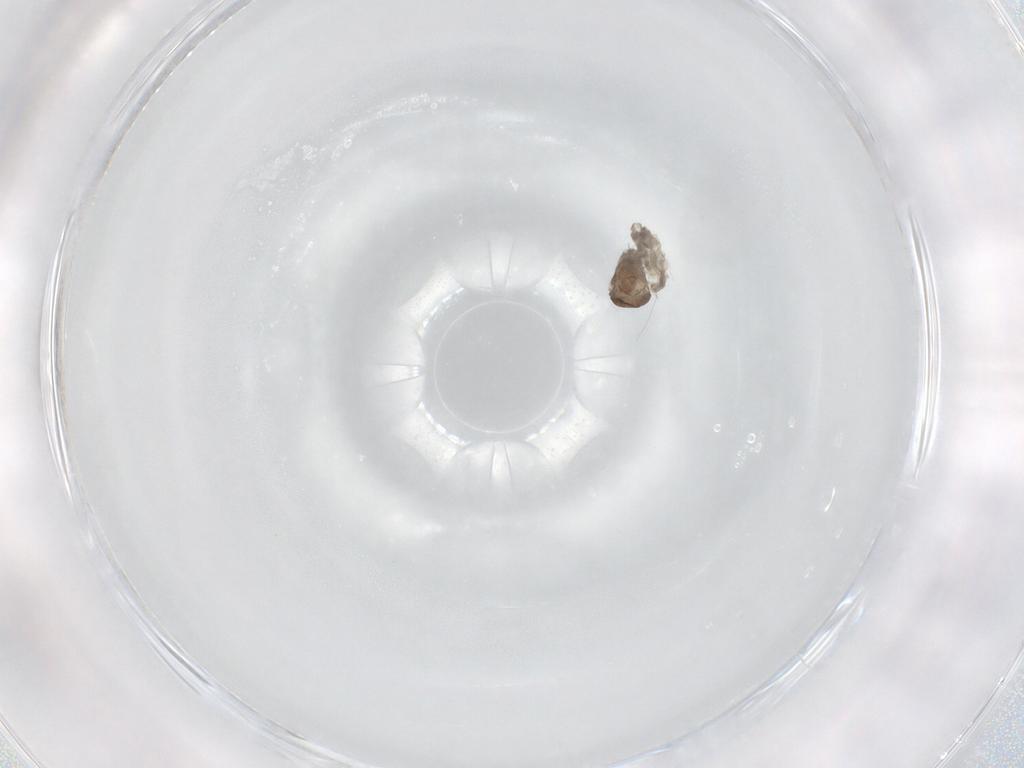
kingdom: Animalia
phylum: Arthropoda
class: Insecta
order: Diptera
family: Ceratopogonidae
